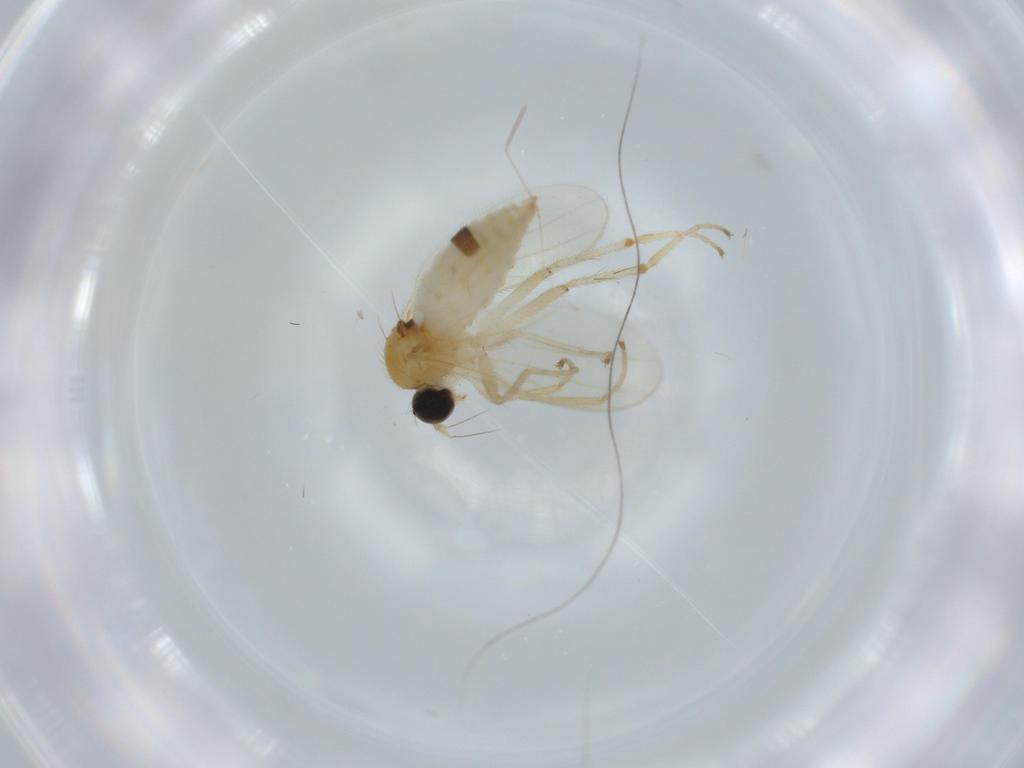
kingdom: Animalia
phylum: Arthropoda
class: Insecta
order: Diptera
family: Hybotidae
